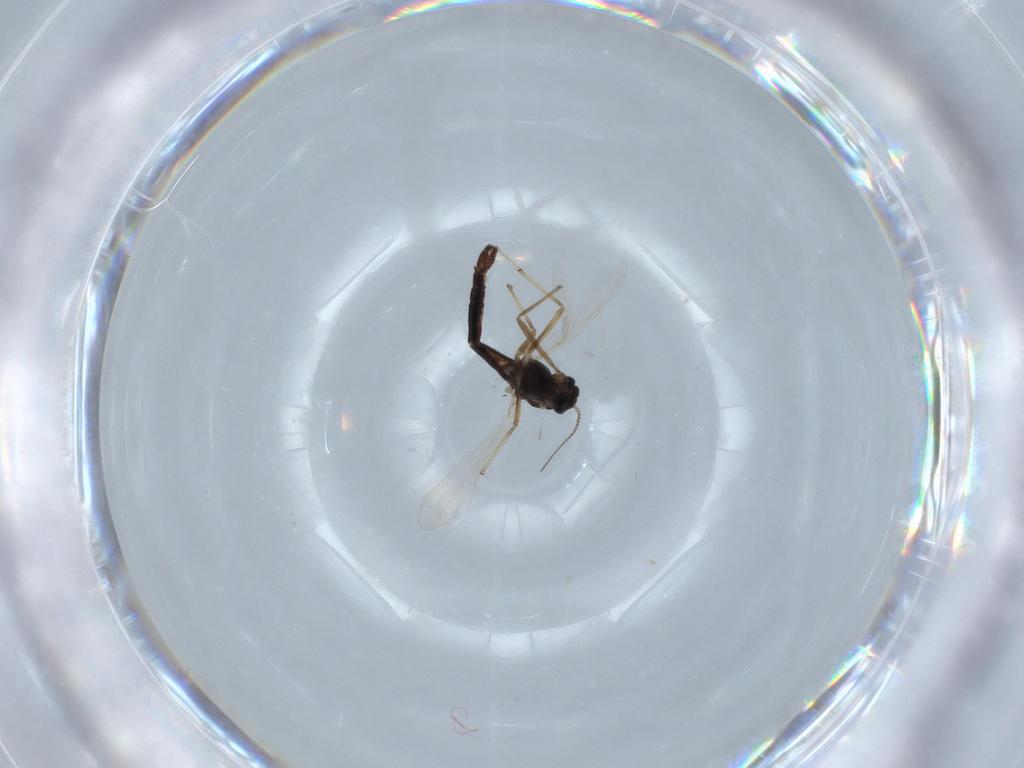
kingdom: Animalia
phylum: Arthropoda
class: Insecta
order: Diptera
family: Chironomidae
